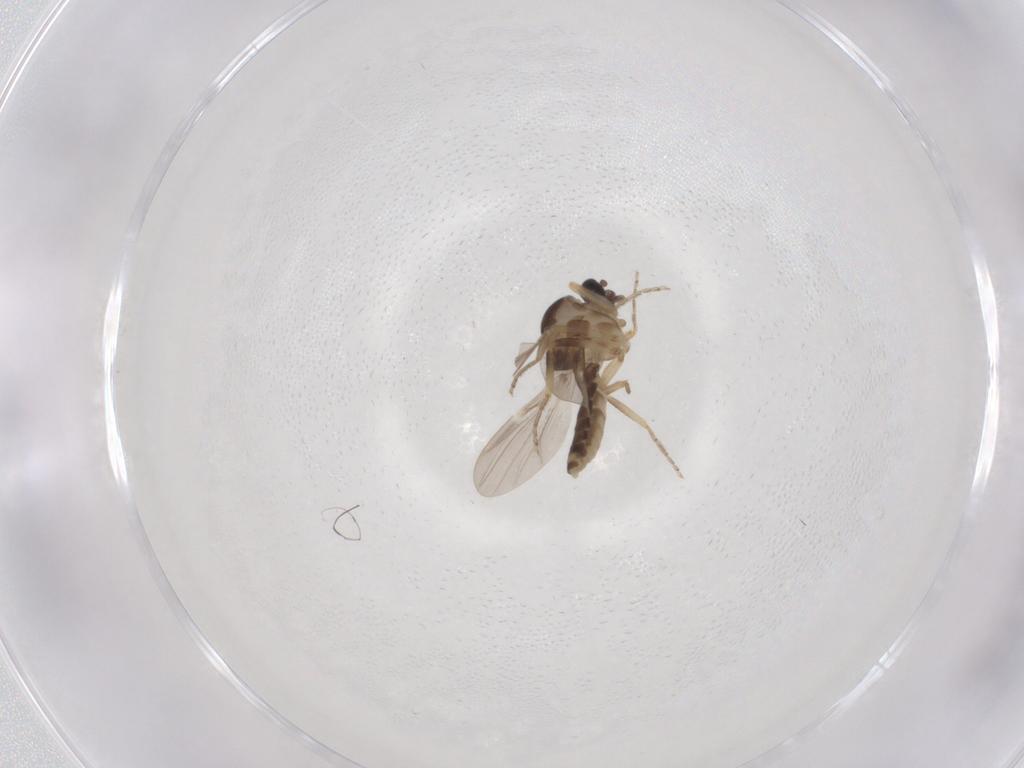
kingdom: Animalia
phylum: Arthropoda
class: Insecta
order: Diptera
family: Ceratopogonidae
